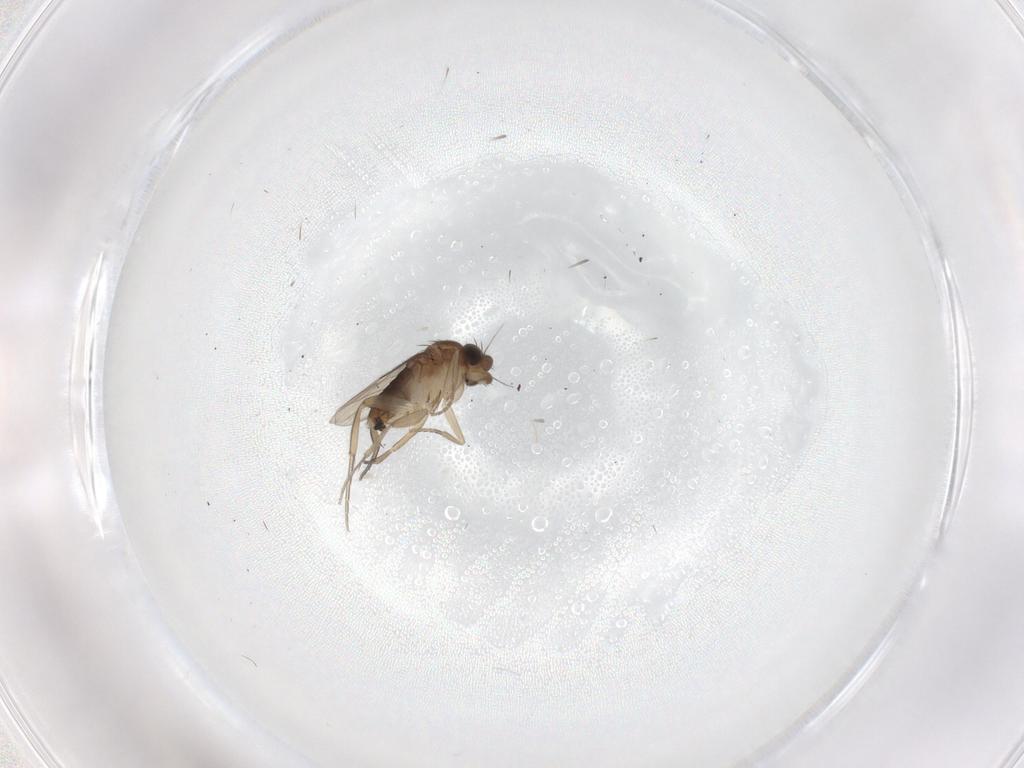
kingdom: Animalia
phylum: Arthropoda
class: Insecta
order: Diptera
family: Phoridae
